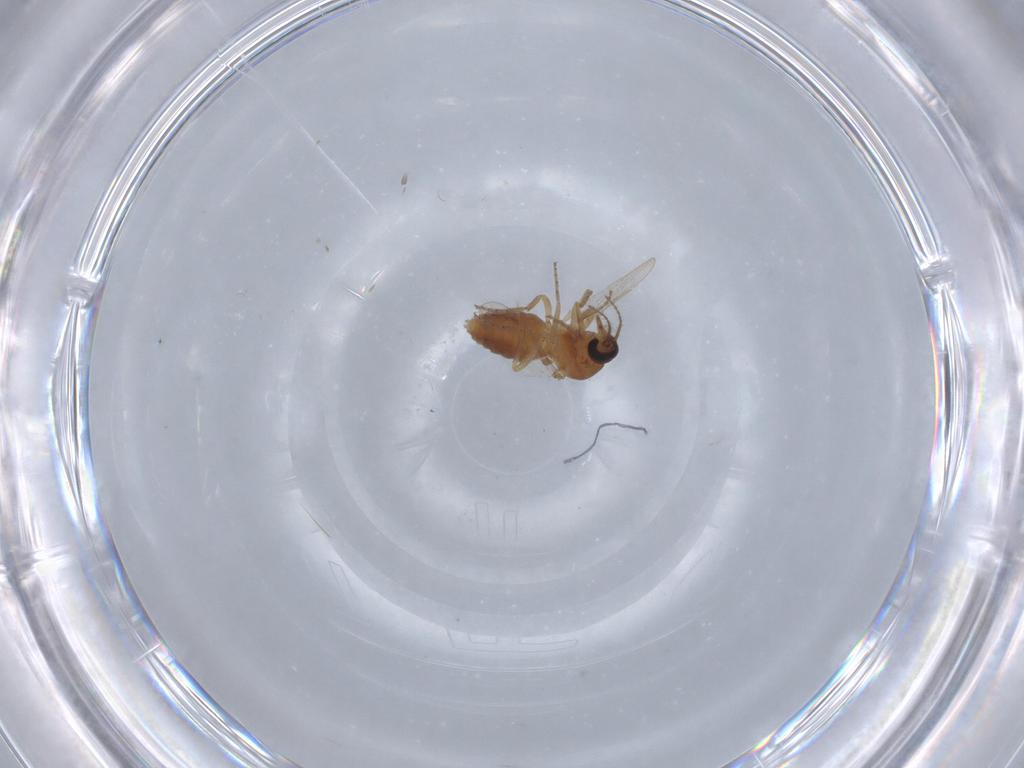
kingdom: Animalia
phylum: Arthropoda
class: Insecta
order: Diptera
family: Ceratopogonidae
